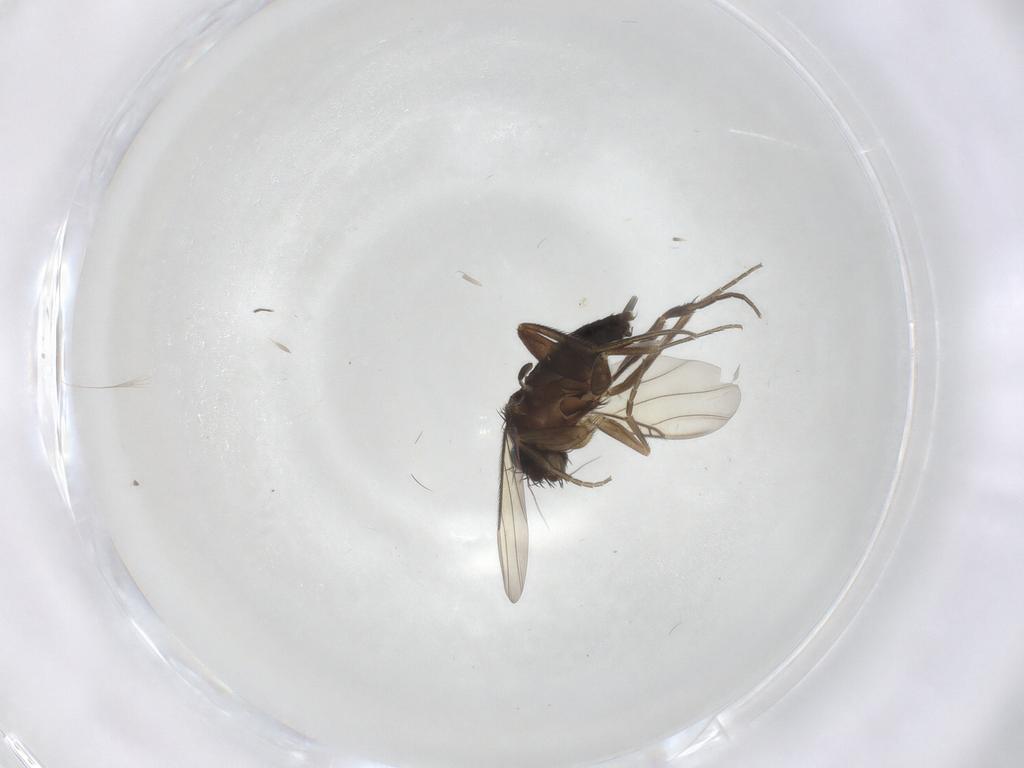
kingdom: Animalia
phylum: Arthropoda
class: Insecta
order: Diptera
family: Phoridae
